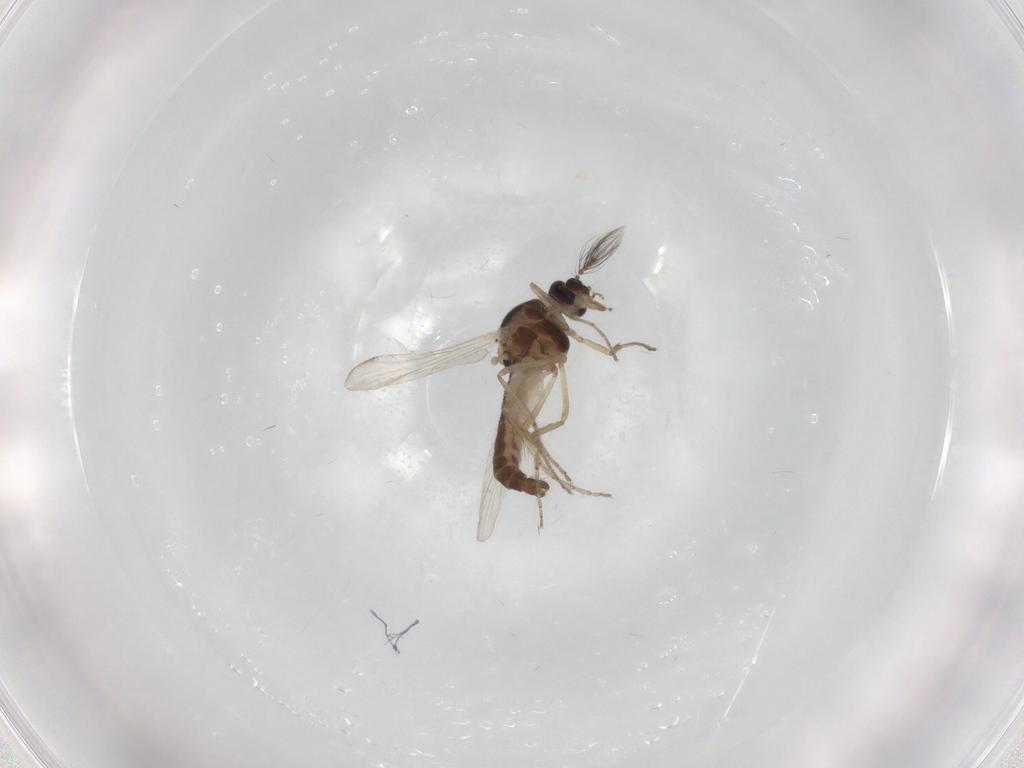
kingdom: Animalia
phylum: Arthropoda
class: Insecta
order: Diptera
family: Ceratopogonidae
